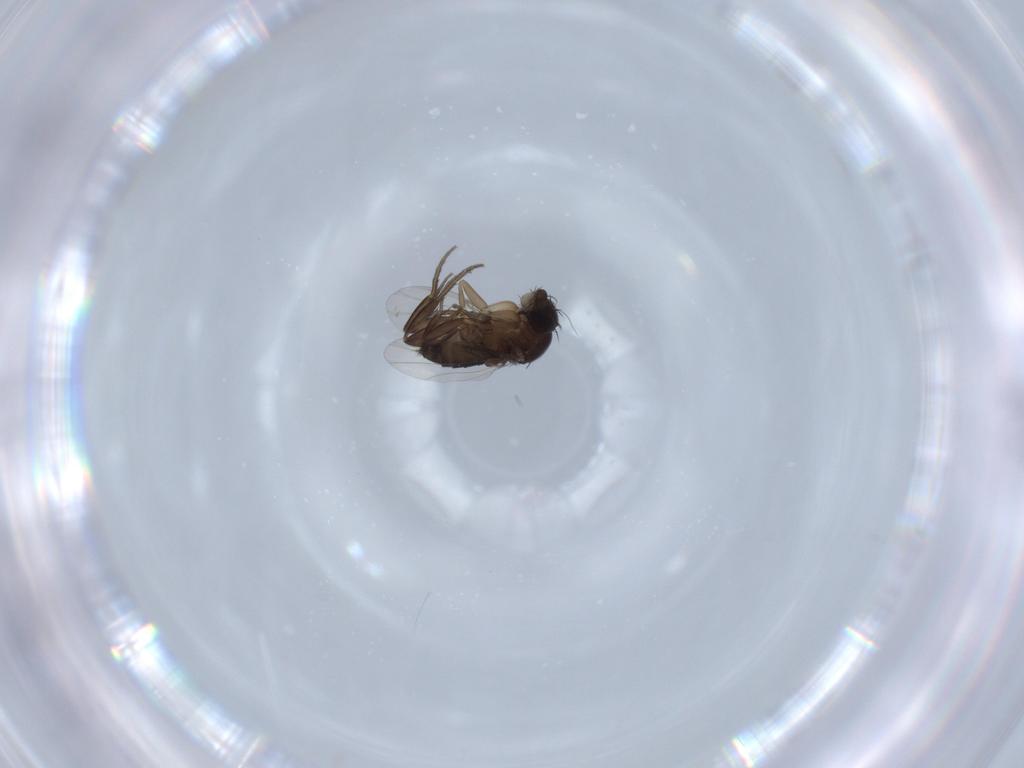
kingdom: Animalia
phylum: Arthropoda
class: Insecta
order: Diptera
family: Phoridae
